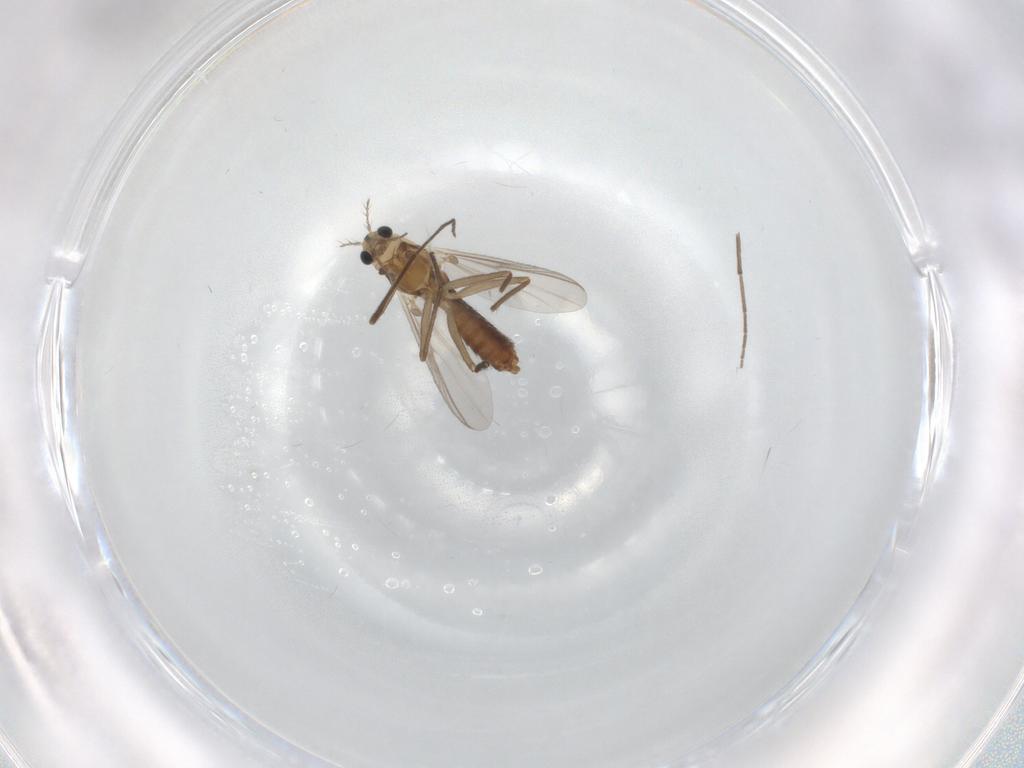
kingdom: Animalia
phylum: Arthropoda
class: Insecta
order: Diptera
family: Chironomidae
